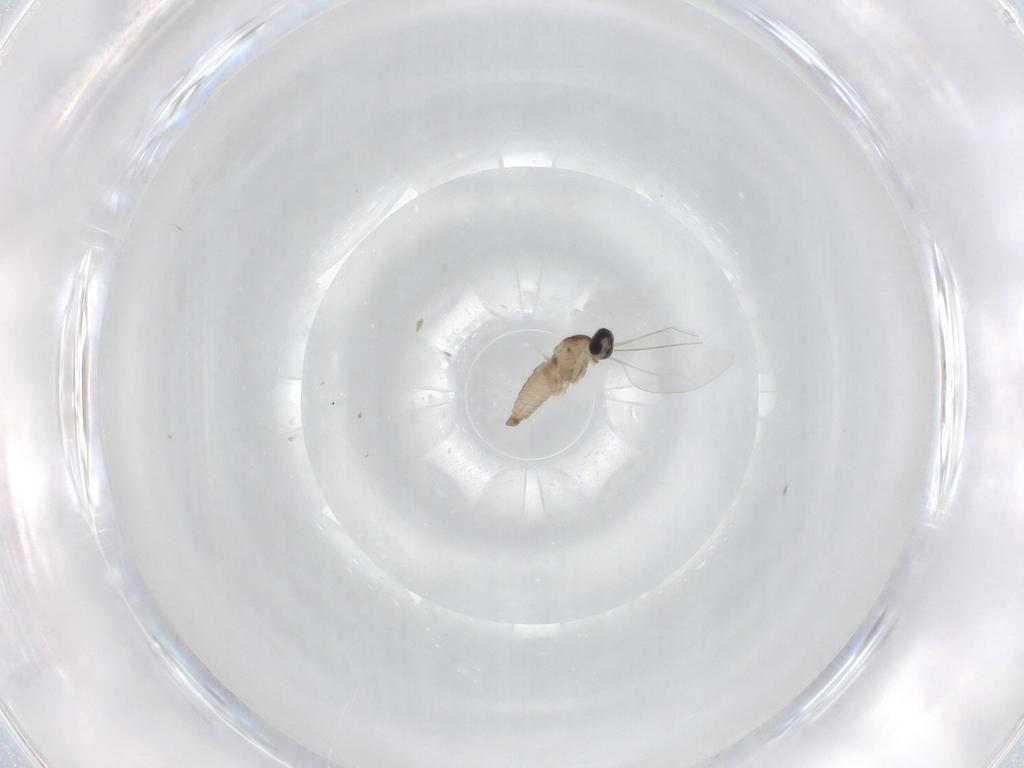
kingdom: Animalia
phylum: Arthropoda
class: Insecta
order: Diptera
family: Cecidomyiidae
